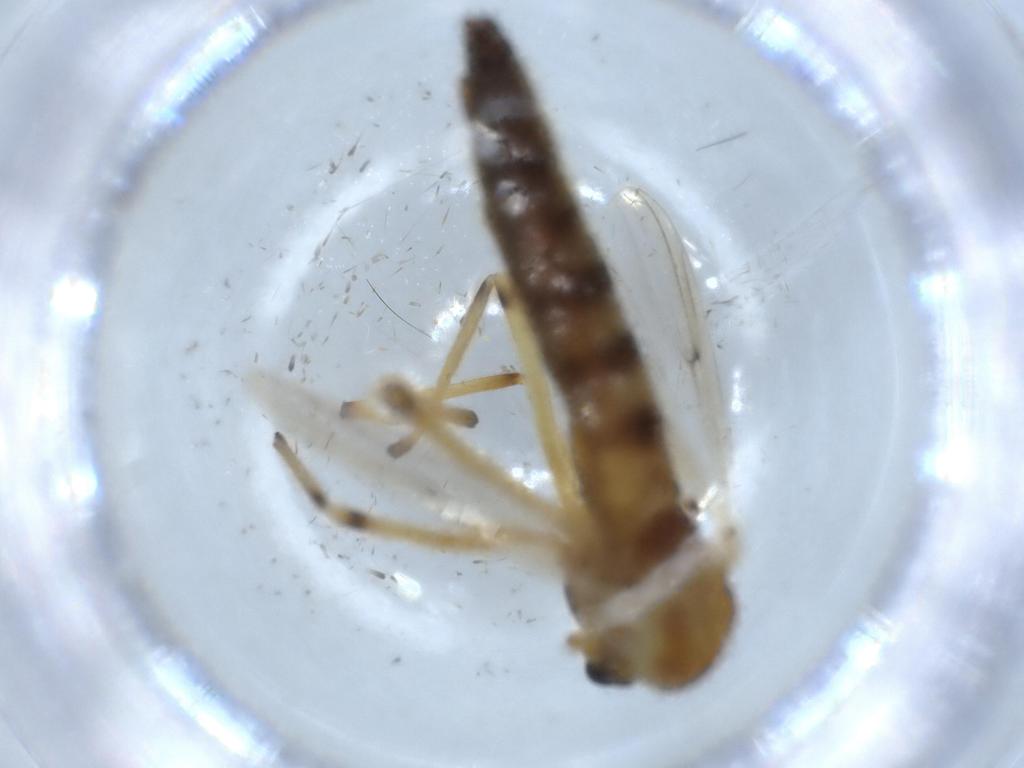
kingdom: Animalia
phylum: Arthropoda
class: Insecta
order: Diptera
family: Chironomidae
